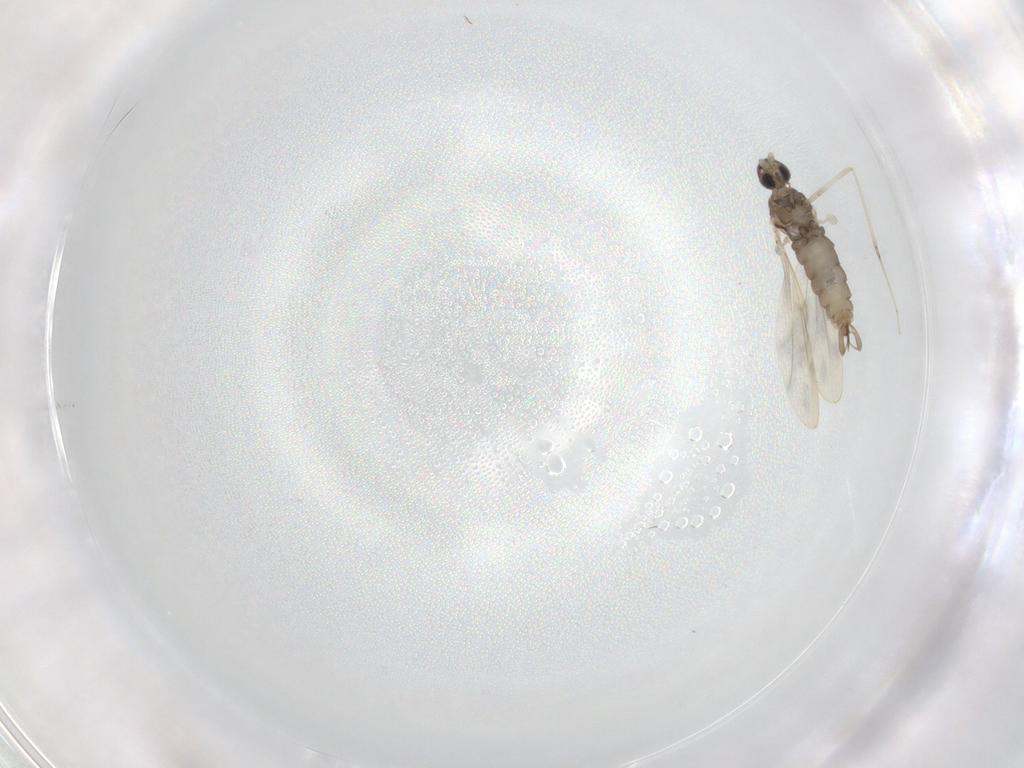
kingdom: Animalia
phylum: Arthropoda
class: Insecta
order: Diptera
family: Cecidomyiidae
